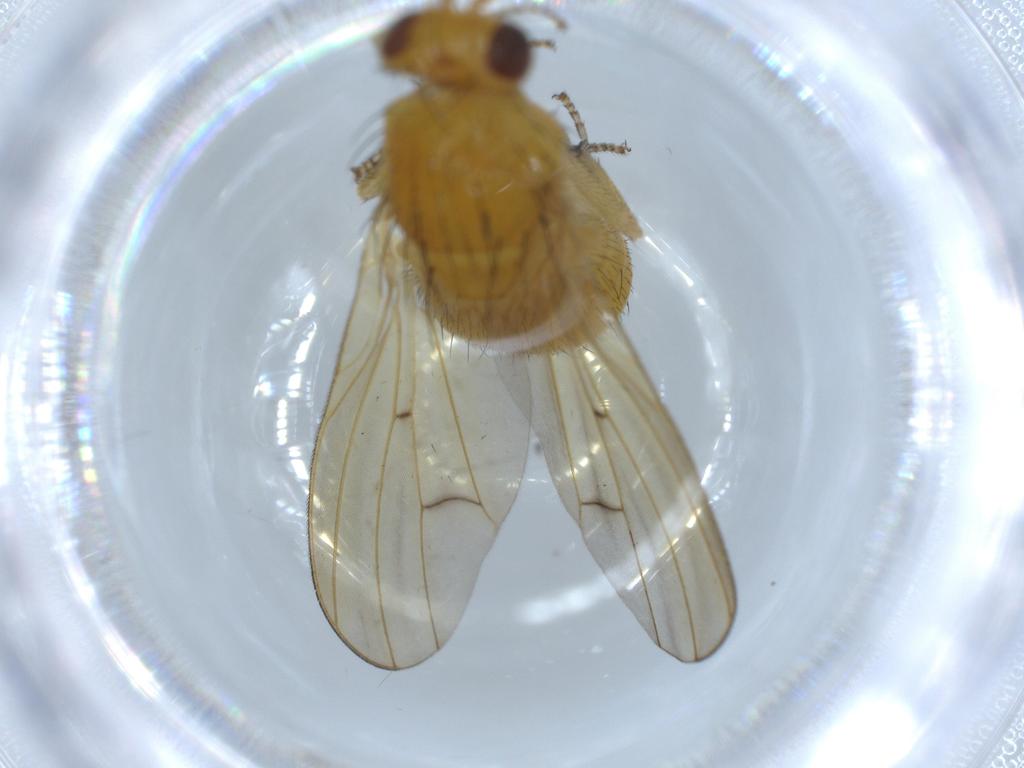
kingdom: Animalia
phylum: Arthropoda
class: Insecta
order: Diptera
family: Lauxaniidae
